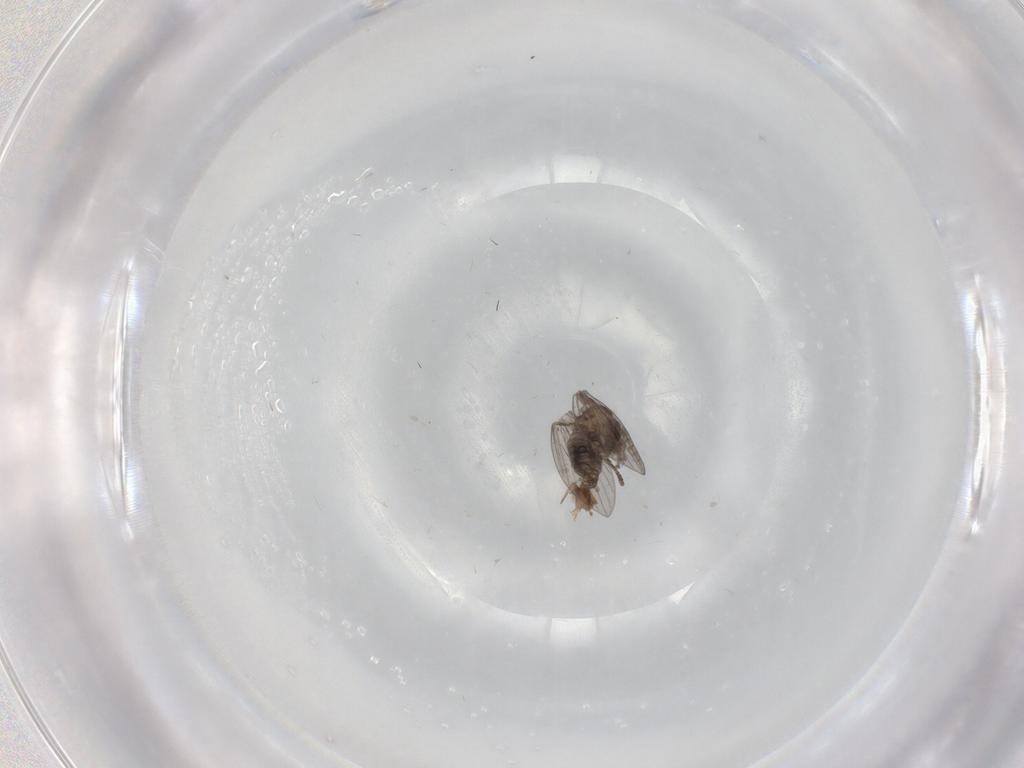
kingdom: Animalia
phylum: Arthropoda
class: Insecta
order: Diptera
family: Chironomidae
